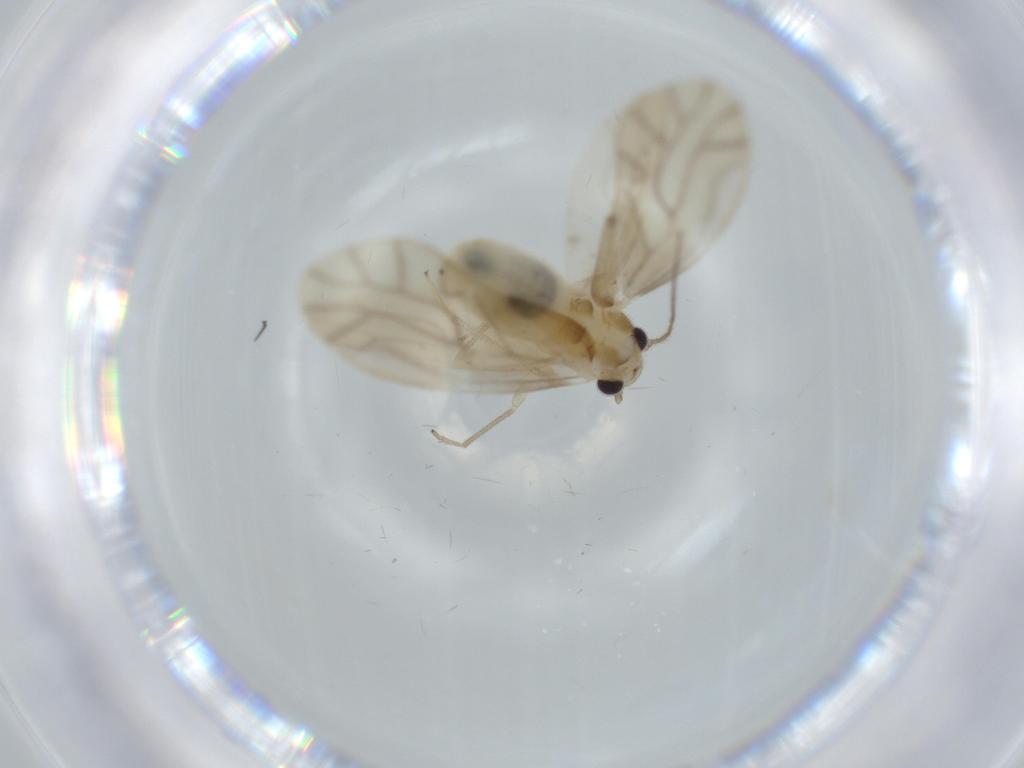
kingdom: Animalia
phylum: Arthropoda
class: Insecta
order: Psocodea
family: Caeciliusidae
